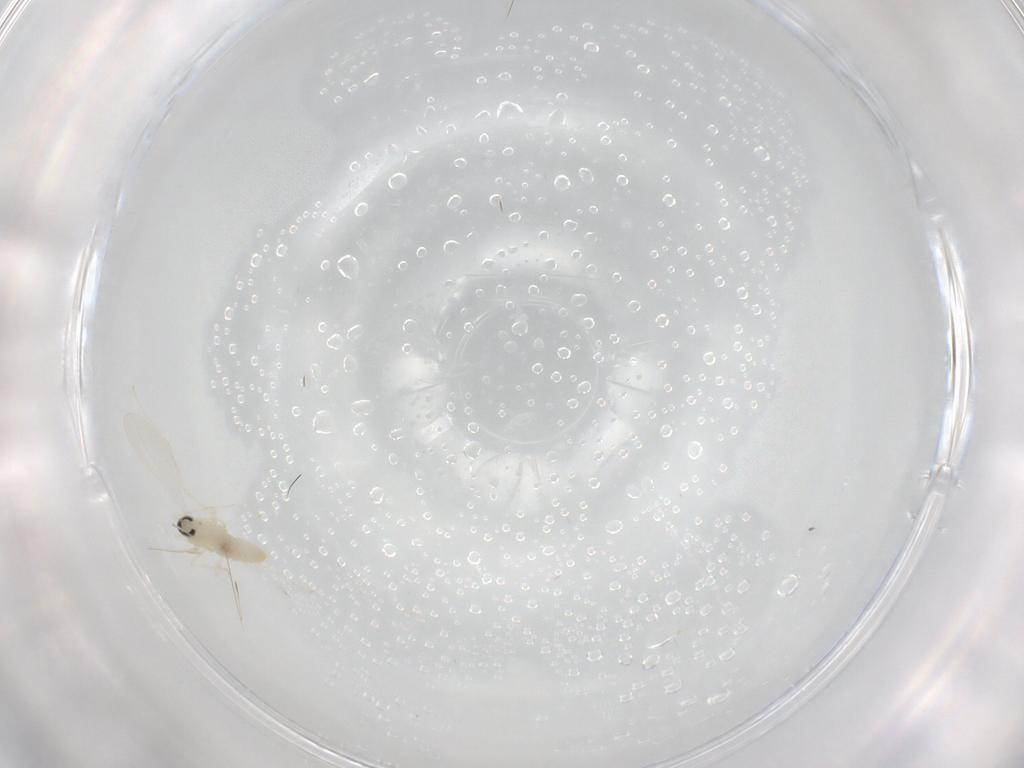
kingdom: Animalia
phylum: Arthropoda
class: Insecta
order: Diptera
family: Cecidomyiidae
